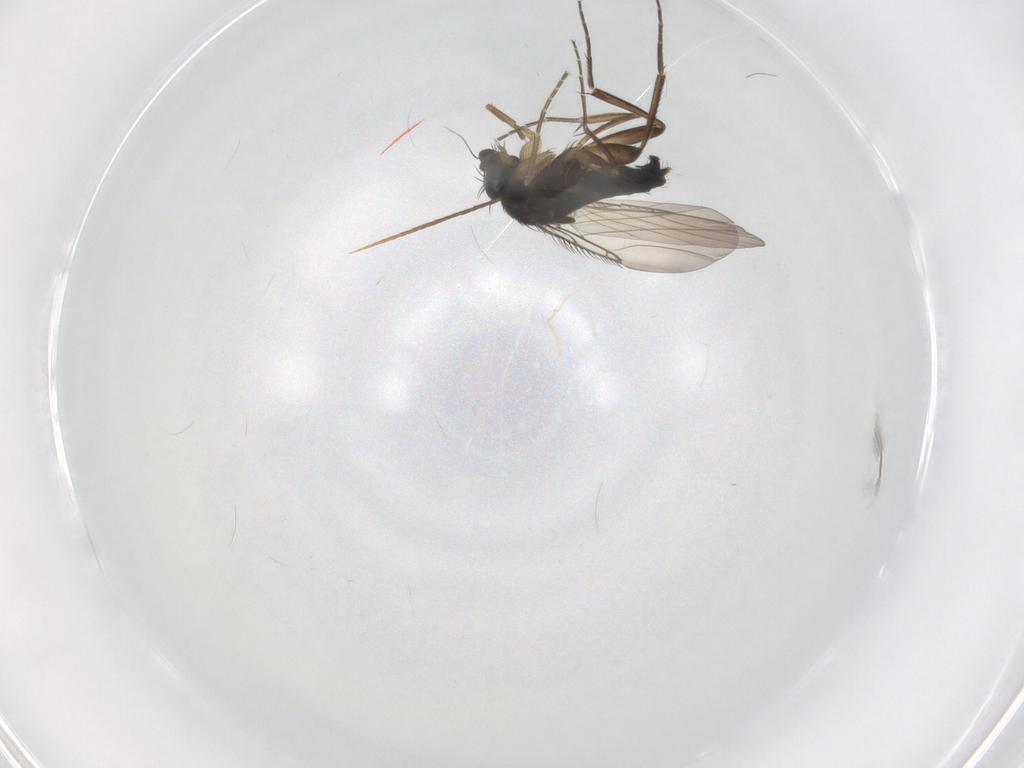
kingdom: Animalia
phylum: Arthropoda
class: Insecta
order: Diptera
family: Phoridae
